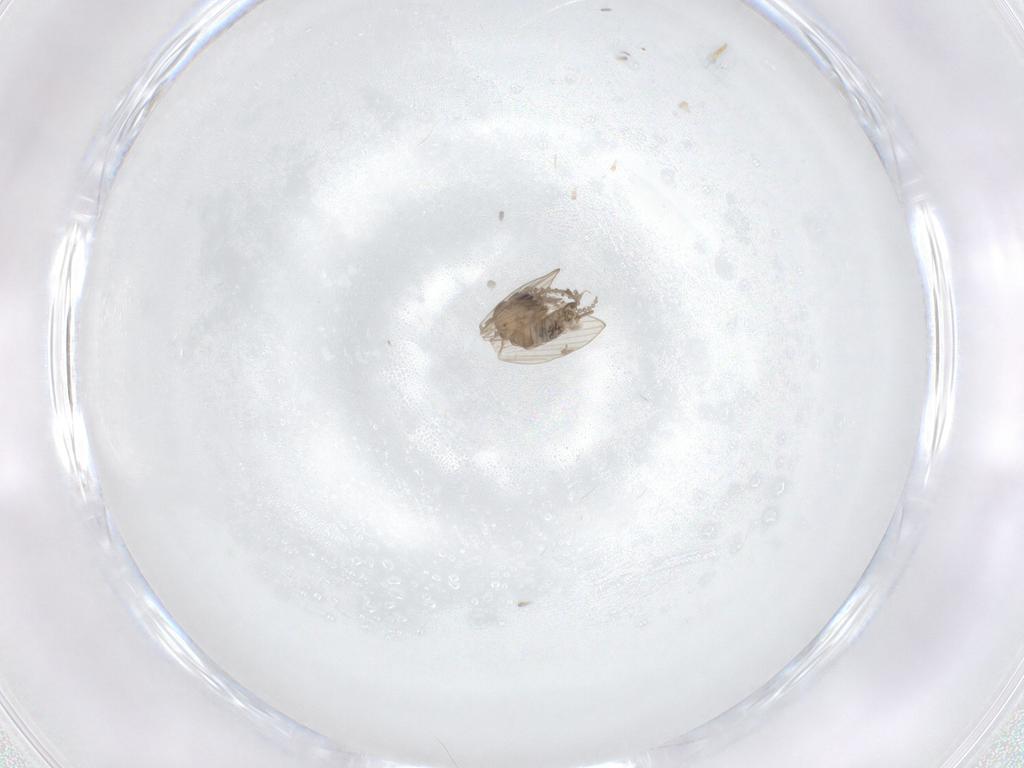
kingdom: Animalia
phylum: Arthropoda
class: Insecta
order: Diptera
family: Psychodidae
